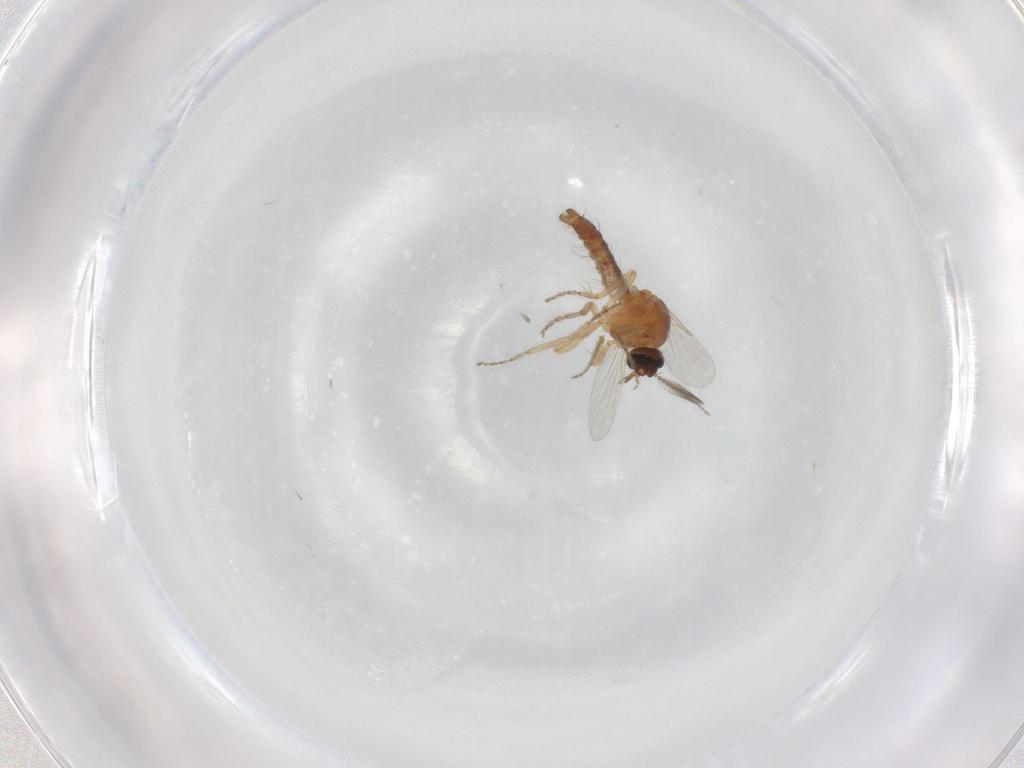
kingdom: Animalia
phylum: Arthropoda
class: Insecta
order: Diptera
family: Ceratopogonidae
